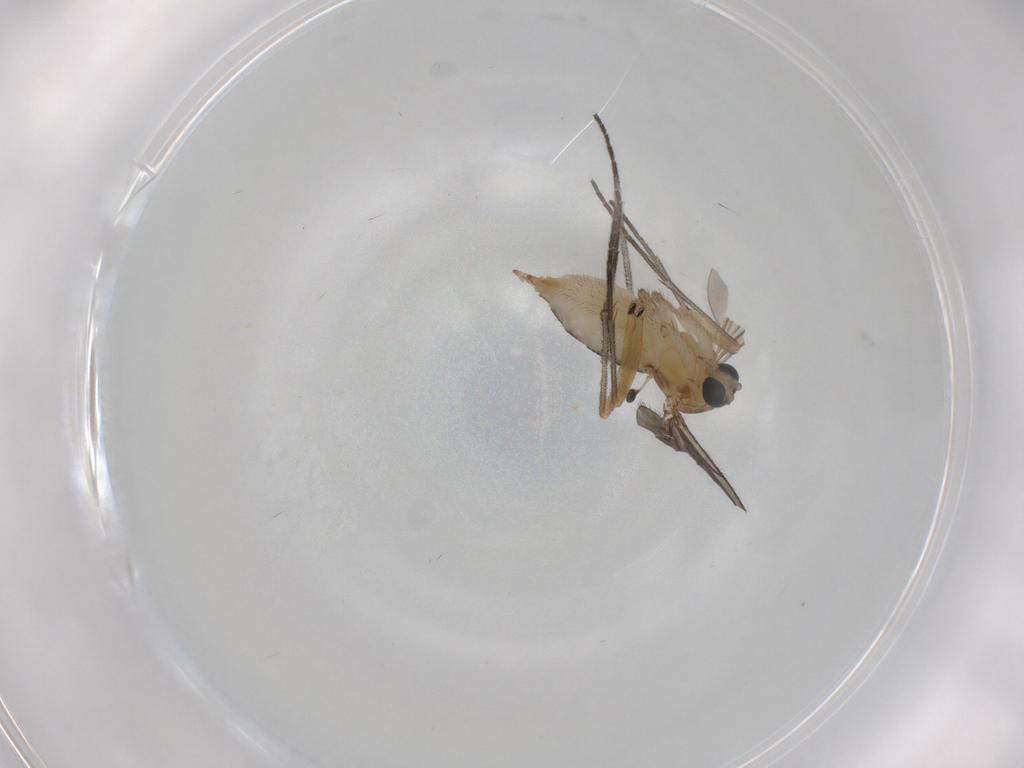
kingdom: Animalia
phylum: Arthropoda
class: Insecta
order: Diptera
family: Sciaridae
